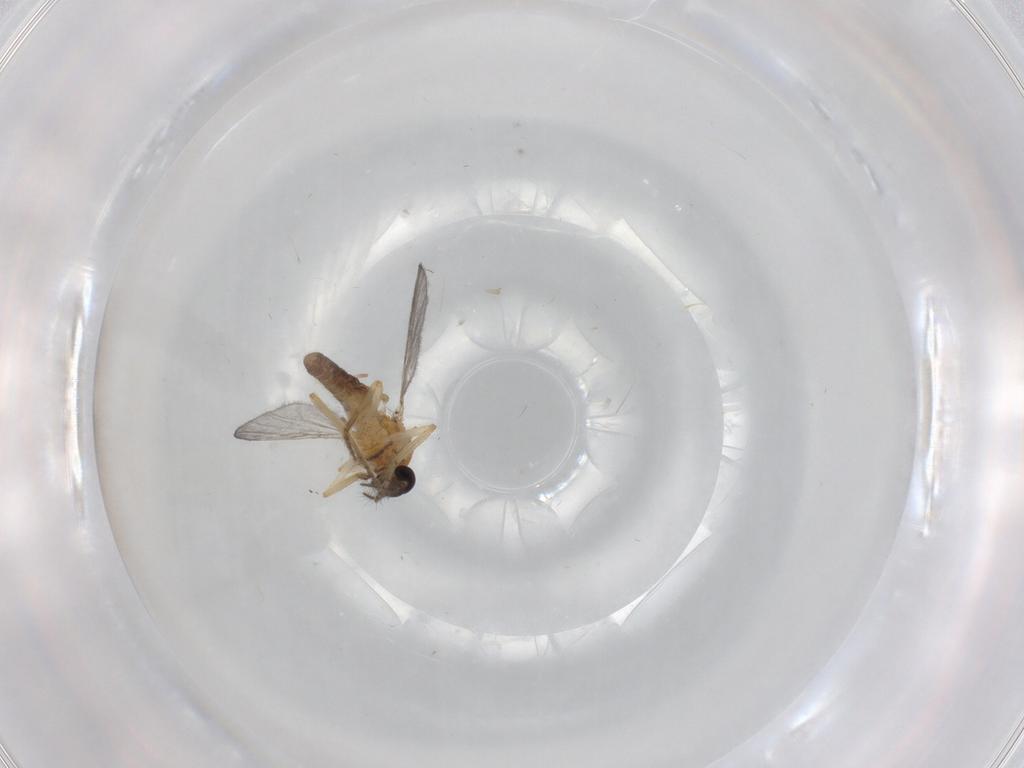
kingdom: Animalia
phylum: Arthropoda
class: Insecta
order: Diptera
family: Ceratopogonidae
